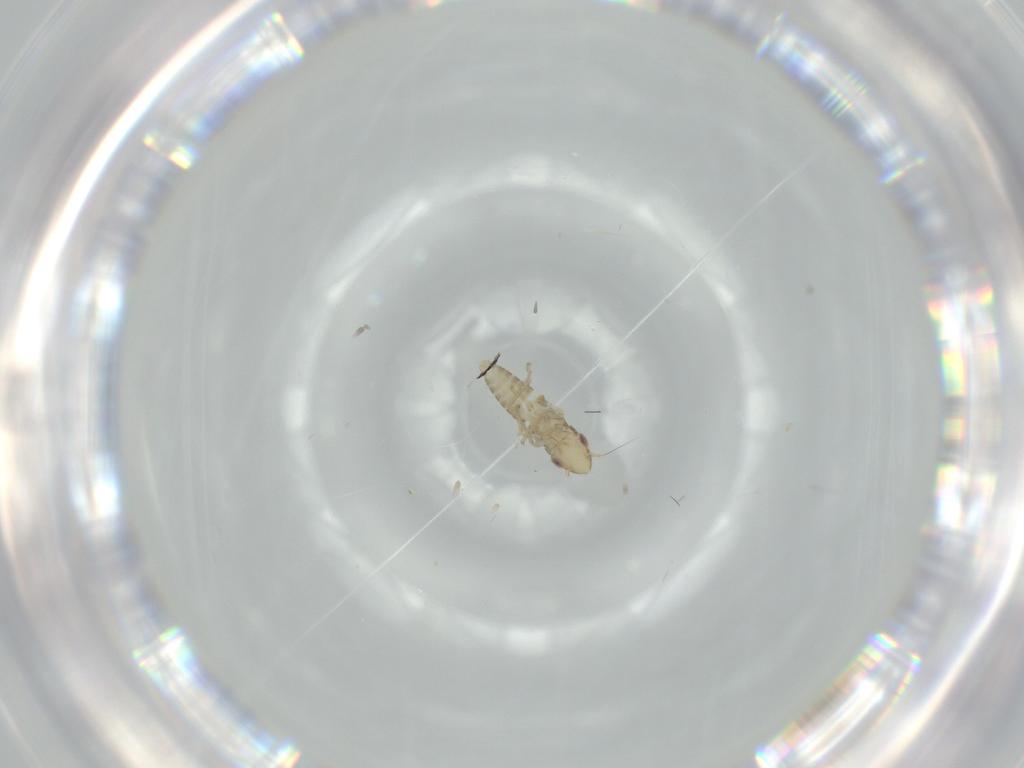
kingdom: Animalia
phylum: Arthropoda
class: Insecta
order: Hemiptera
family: Cicadellidae
